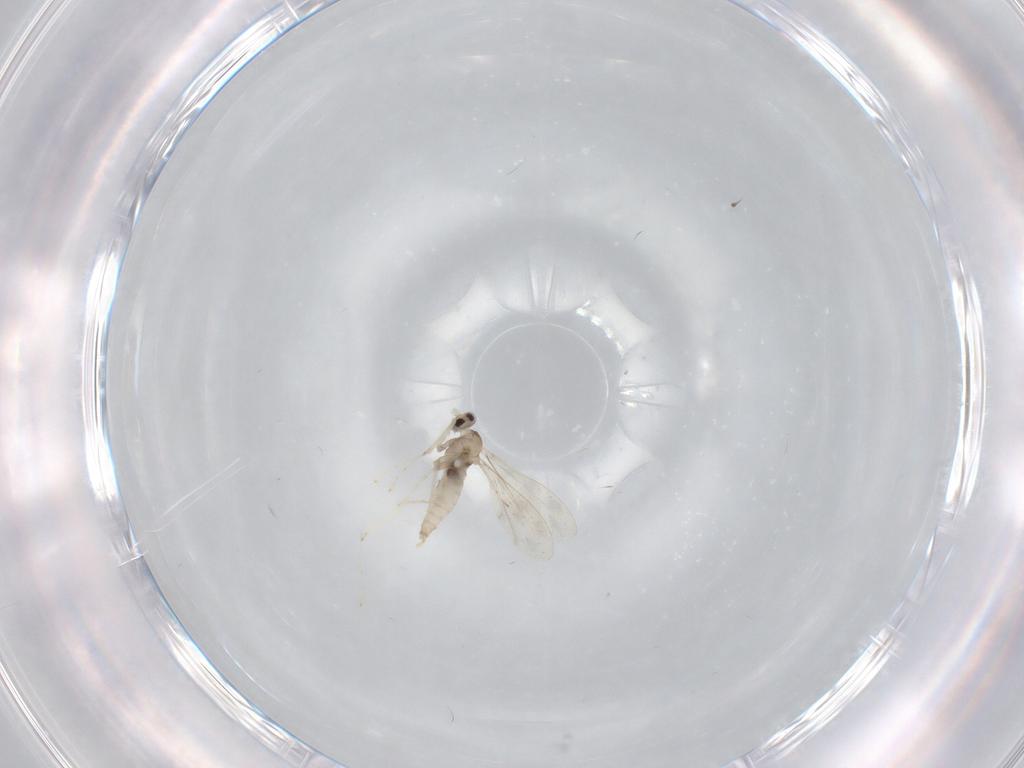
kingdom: Animalia
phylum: Arthropoda
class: Insecta
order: Diptera
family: Cecidomyiidae
